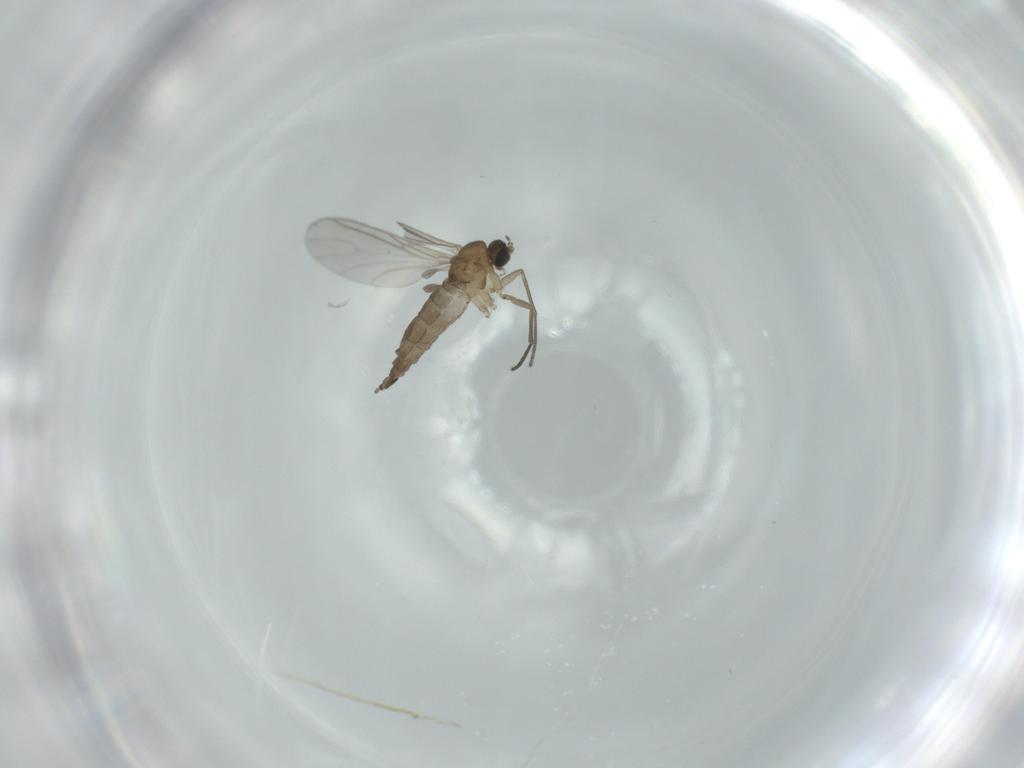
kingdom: Animalia
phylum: Arthropoda
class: Insecta
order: Diptera
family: Sciaridae
